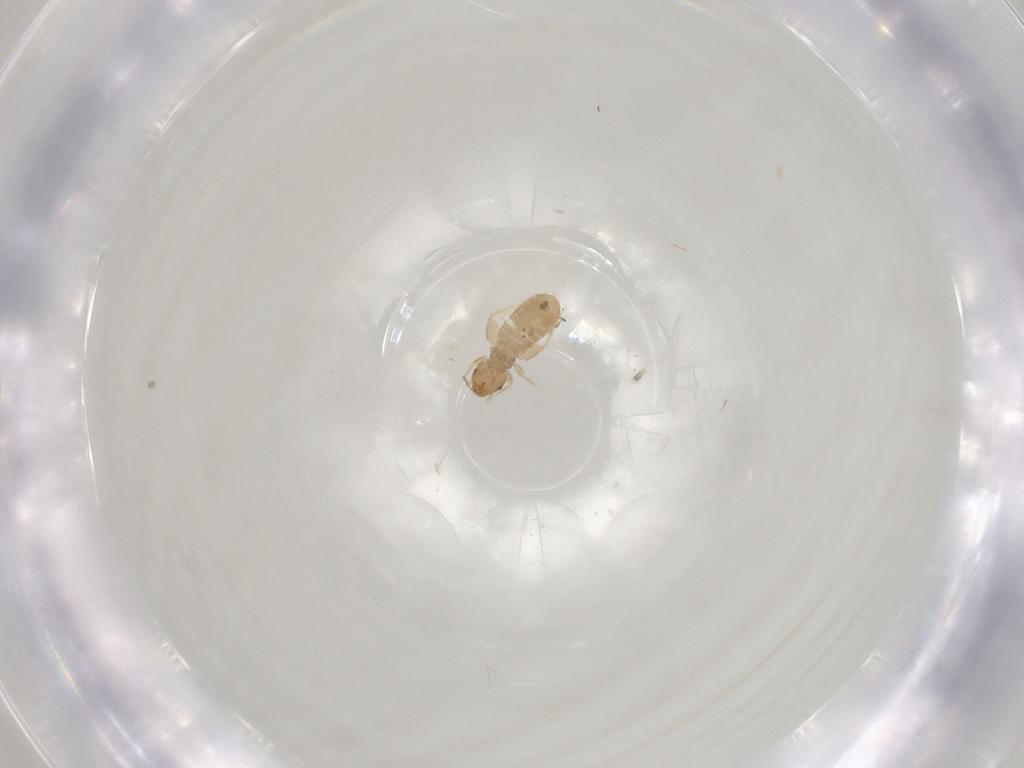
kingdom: Animalia
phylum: Arthropoda
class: Insecta
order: Psocodea
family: Liposcelididae
